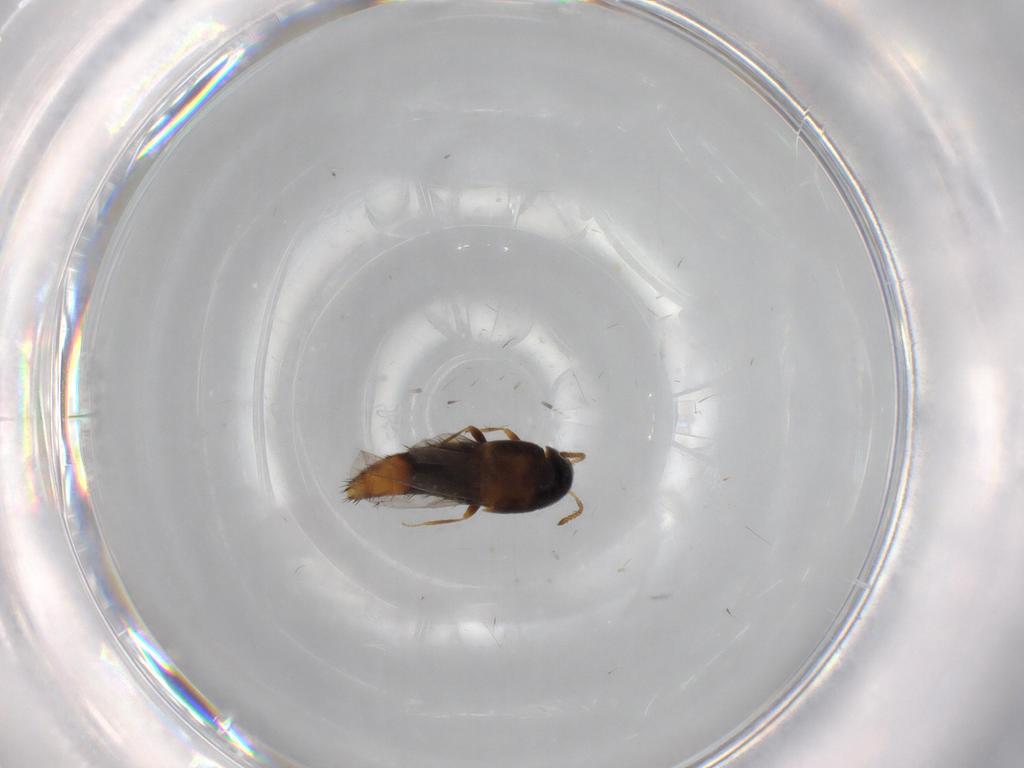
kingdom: Animalia
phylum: Arthropoda
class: Insecta
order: Coleoptera
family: Staphylinidae
